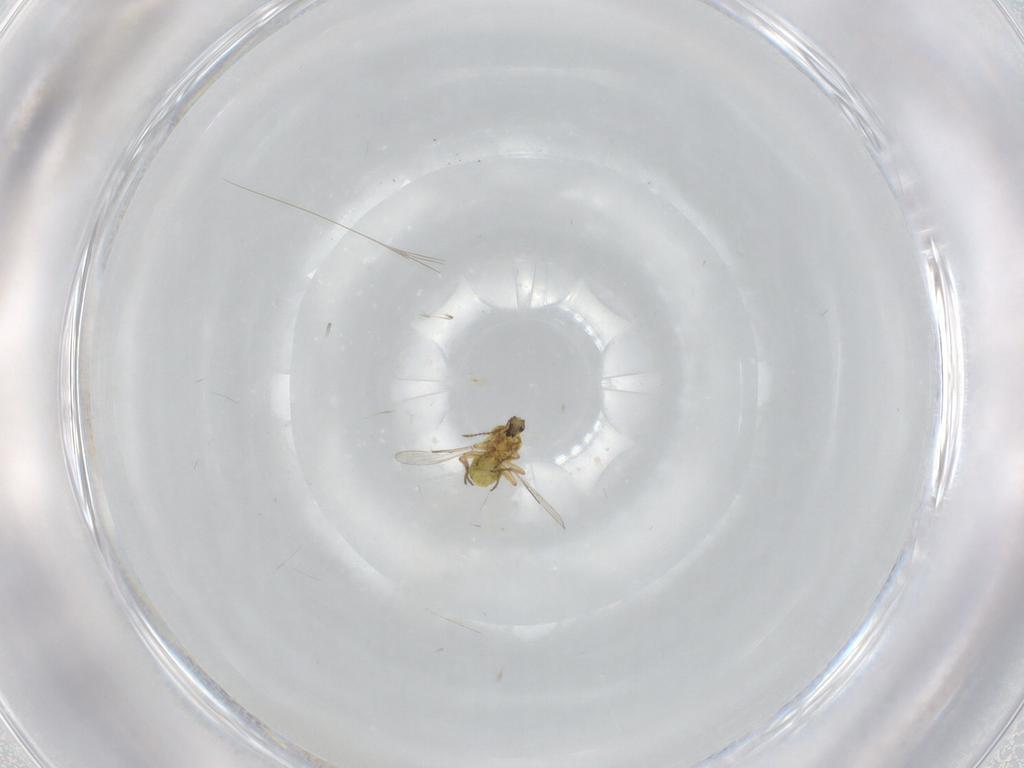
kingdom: Animalia
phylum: Arthropoda
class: Insecta
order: Diptera
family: Ceratopogonidae
